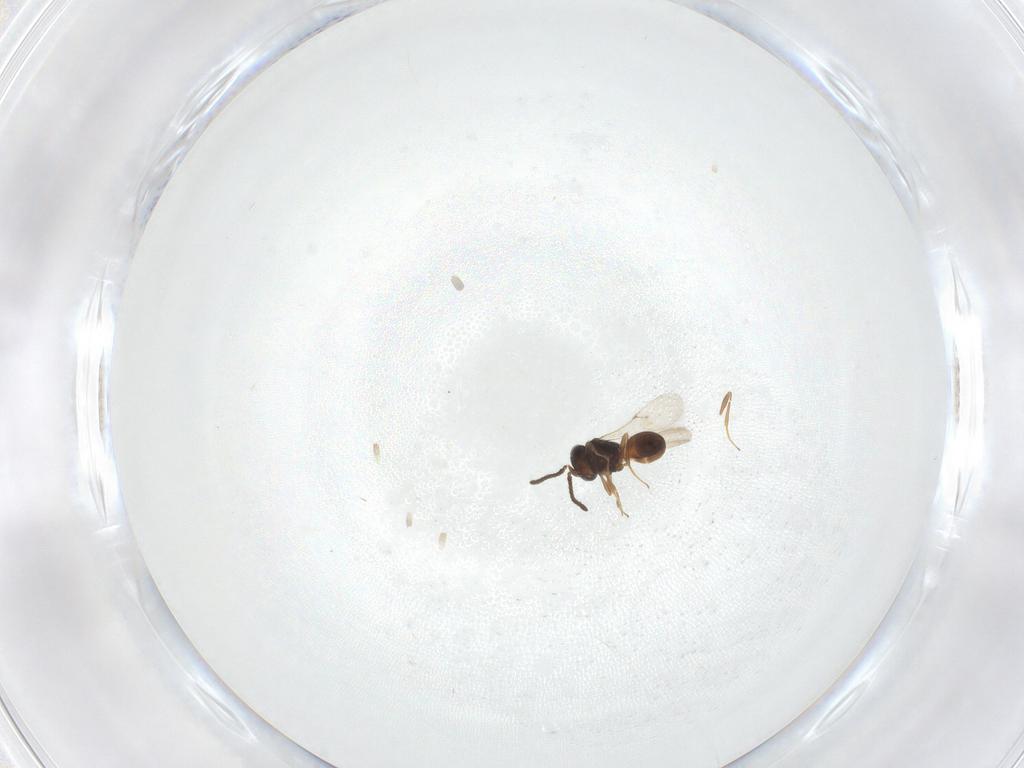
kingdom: Animalia
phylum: Arthropoda
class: Insecta
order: Hymenoptera
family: Scelionidae
